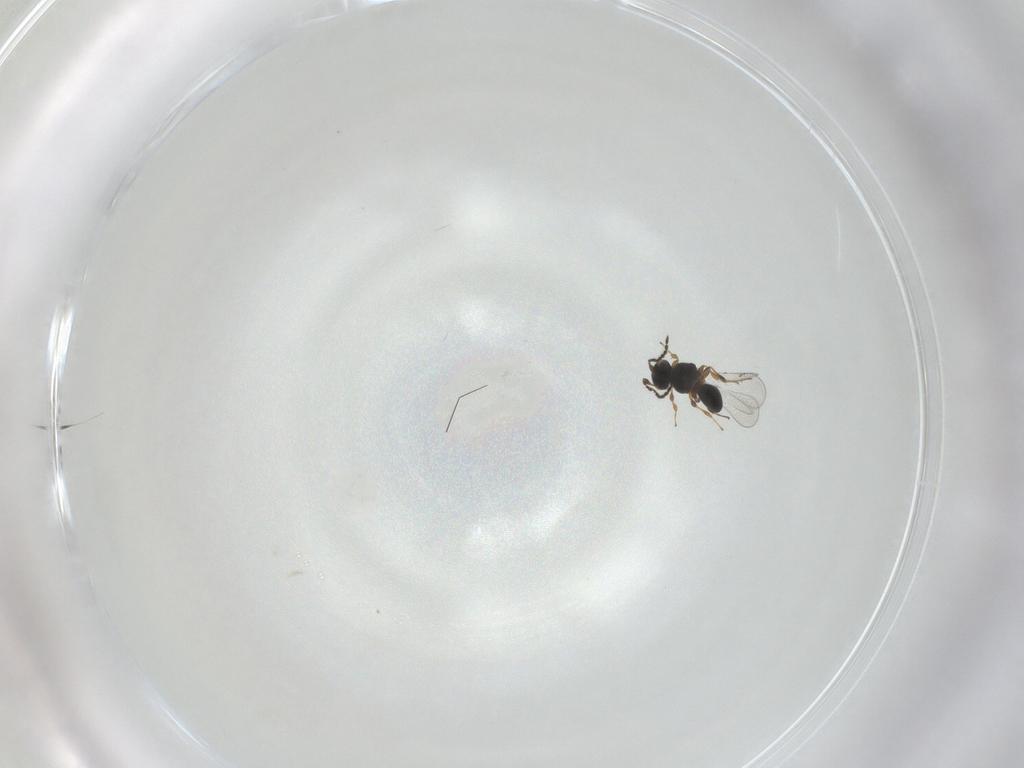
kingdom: Animalia
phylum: Arthropoda
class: Insecta
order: Hymenoptera
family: Platygastridae
